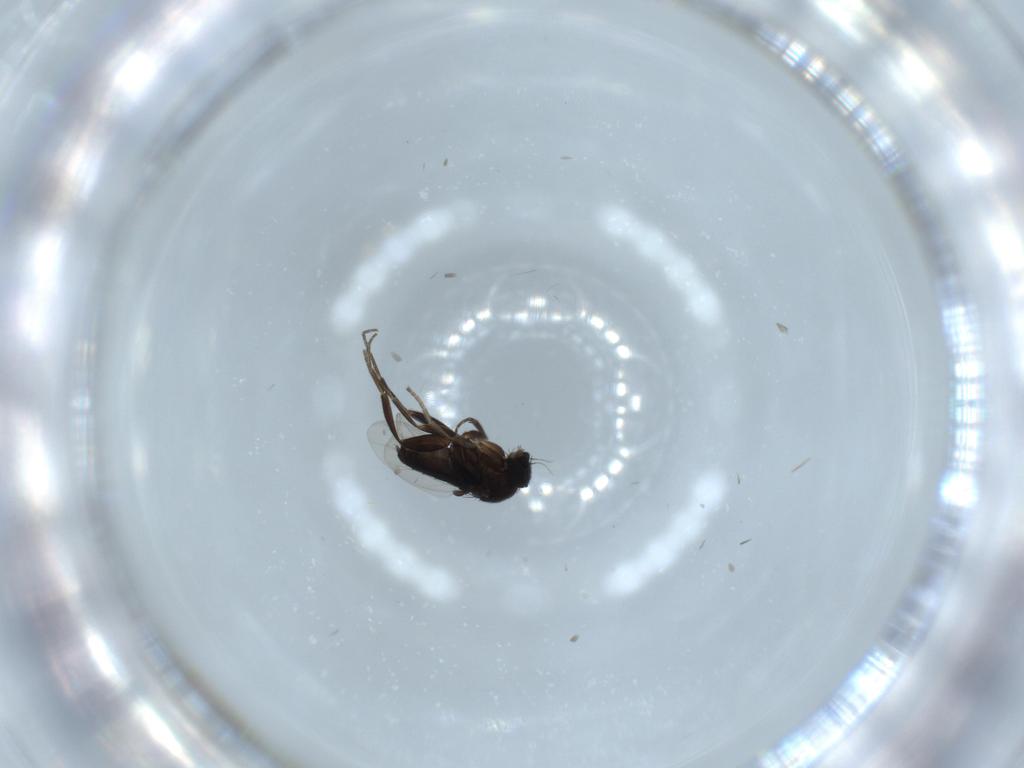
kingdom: Animalia
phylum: Arthropoda
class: Insecta
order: Diptera
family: Phoridae
